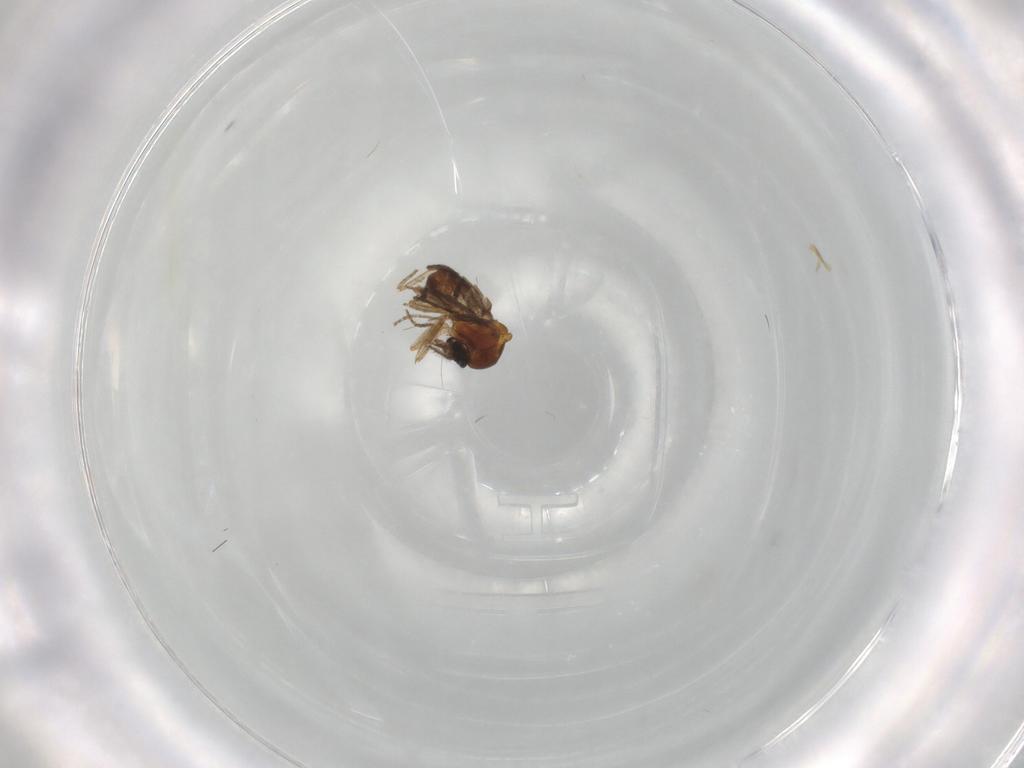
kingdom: Animalia
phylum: Arthropoda
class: Insecta
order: Diptera
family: Ceratopogonidae
